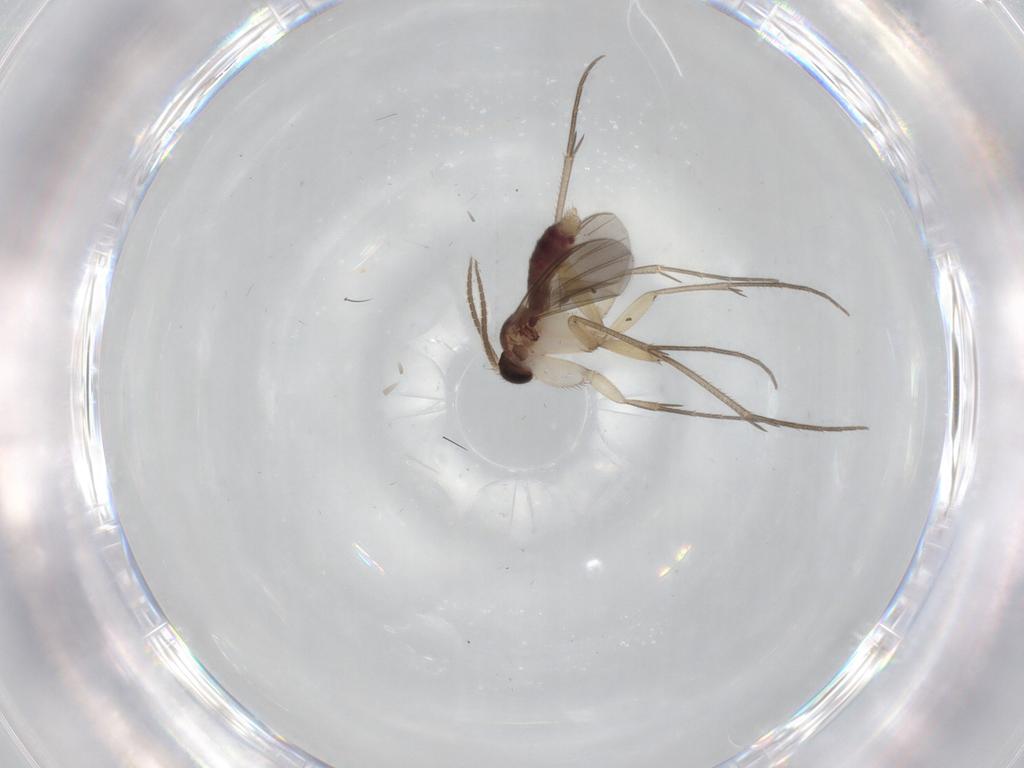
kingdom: Animalia
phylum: Arthropoda
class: Insecta
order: Diptera
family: Mycetophilidae
